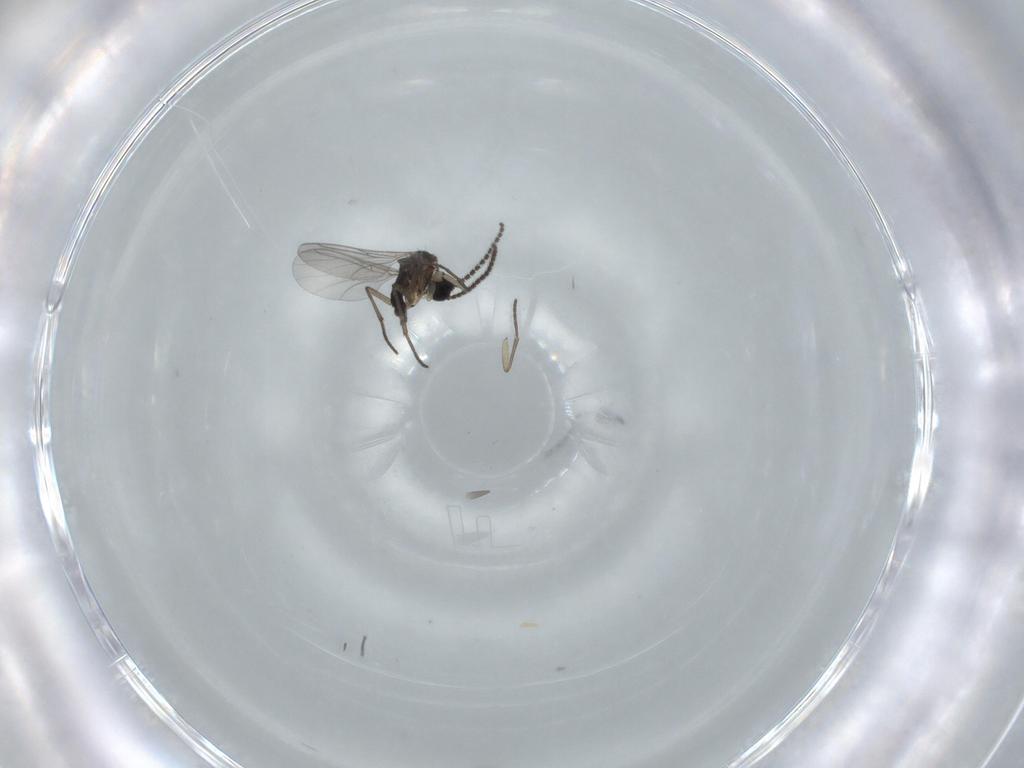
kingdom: Animalia
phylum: Arthropoda
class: Insecta
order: Diptera
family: Sciaridae
